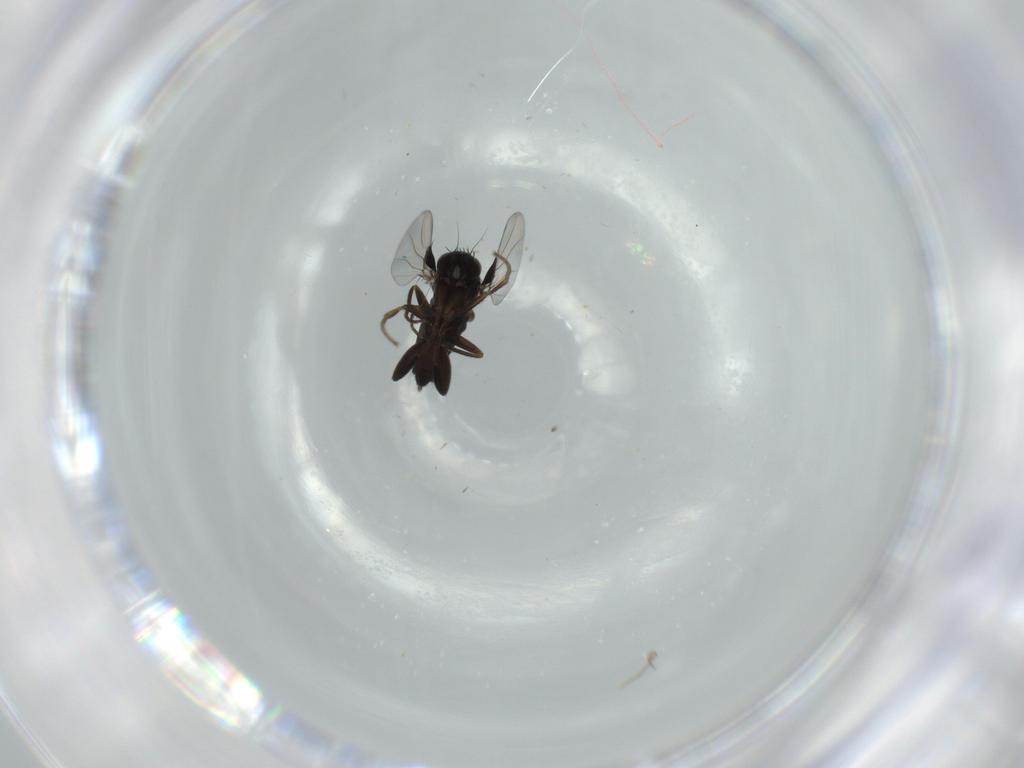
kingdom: Animalia
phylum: Arthropoda
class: Insecta
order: Diptera
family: Phoridae
